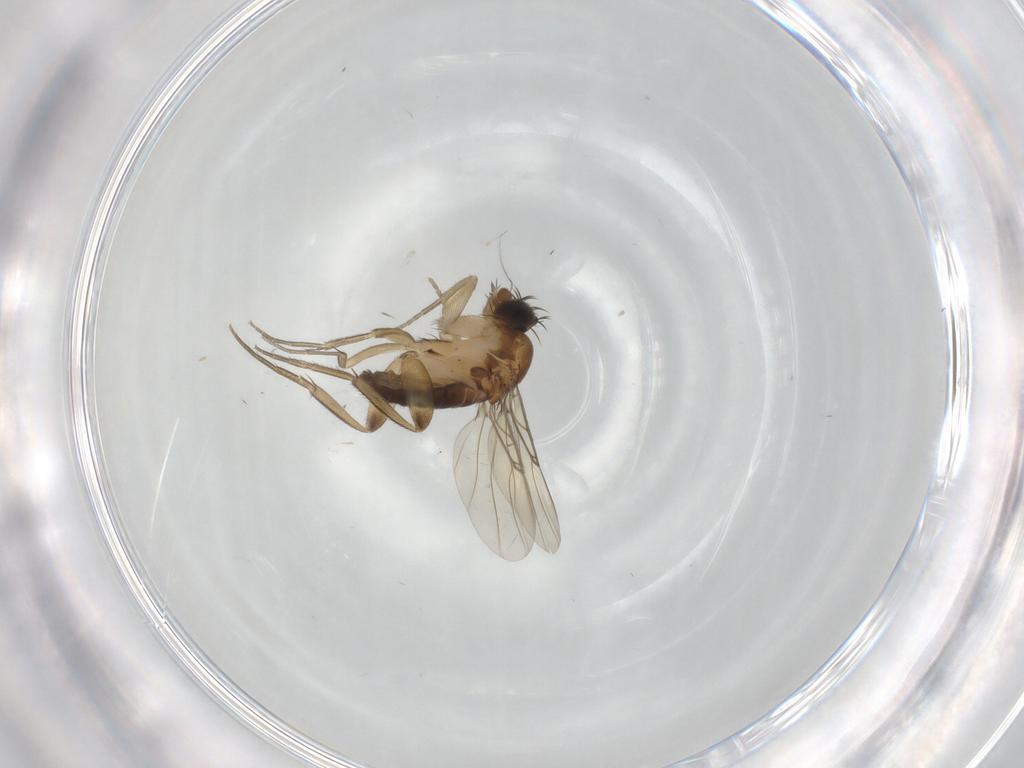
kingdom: Animalia
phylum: Arthropoda
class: Insecta
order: Diptera
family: Phoridae
